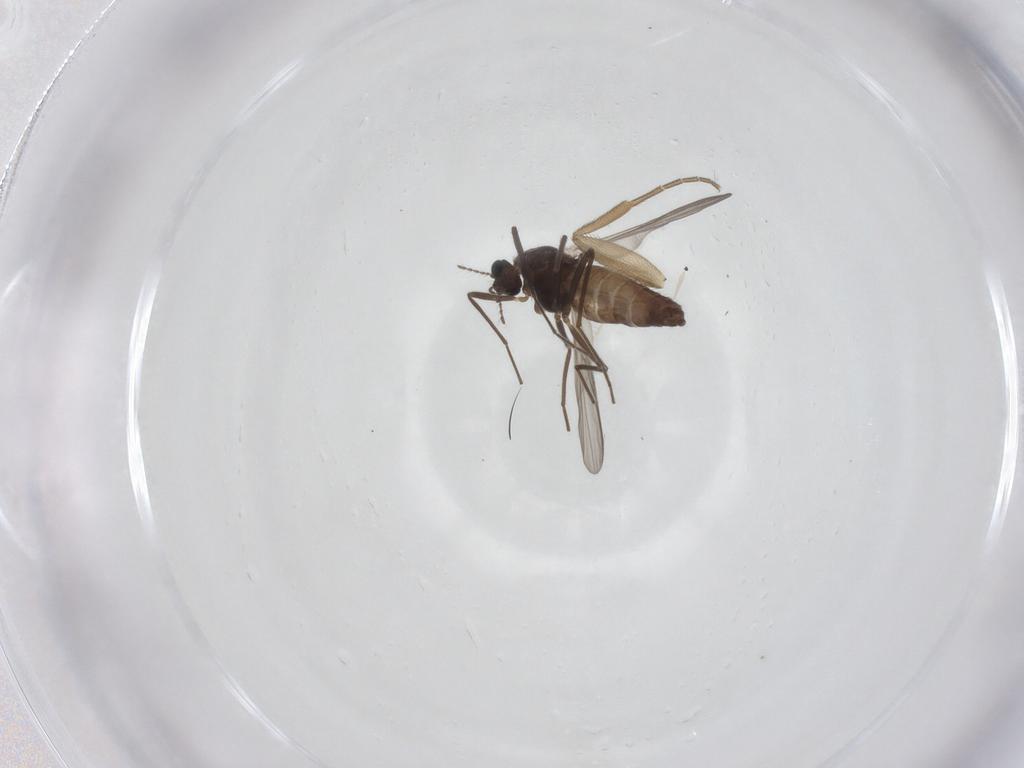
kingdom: Animalia
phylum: Arthropoda
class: Insecta
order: Diptera
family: Chironomidae
